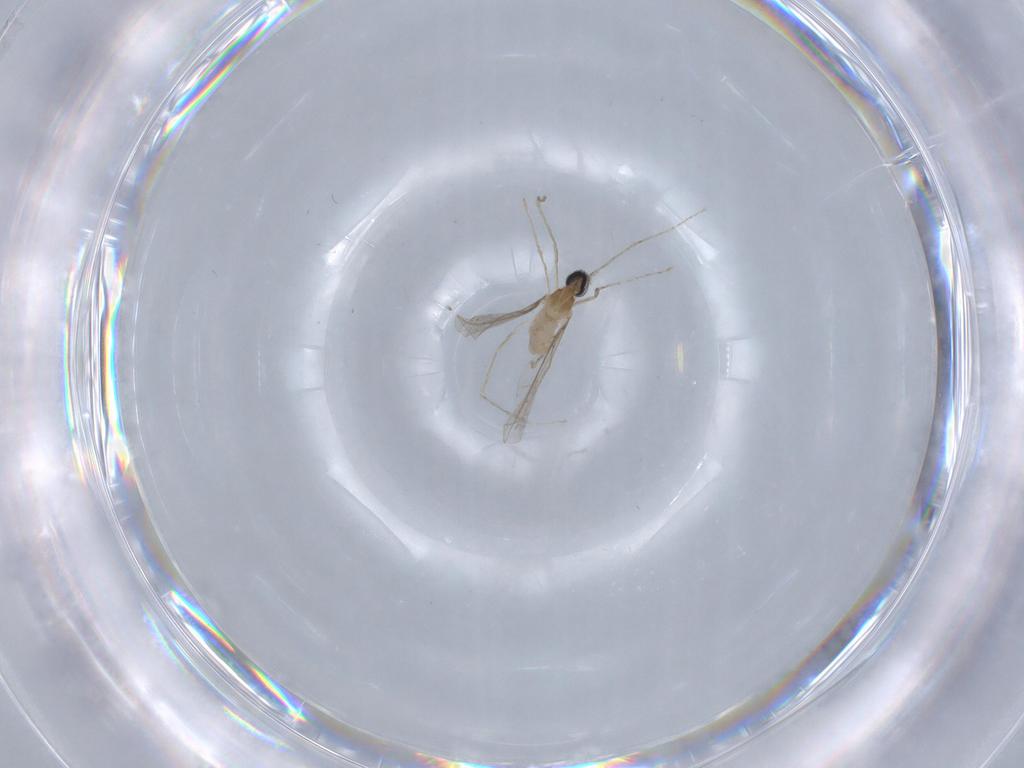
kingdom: Animalia
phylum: Arthropoda
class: Insecta
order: Diptera
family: Cecidomyiidae
